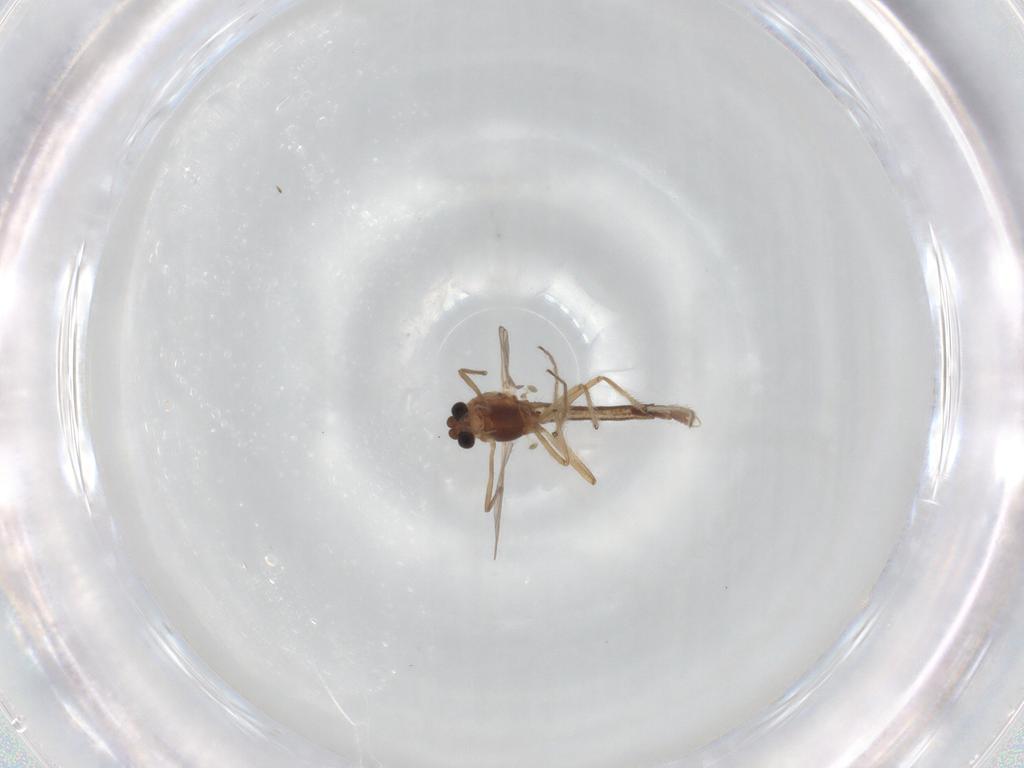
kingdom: Animalia
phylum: Arthropoda
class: Insecta
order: Diptera
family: Chironomidae
